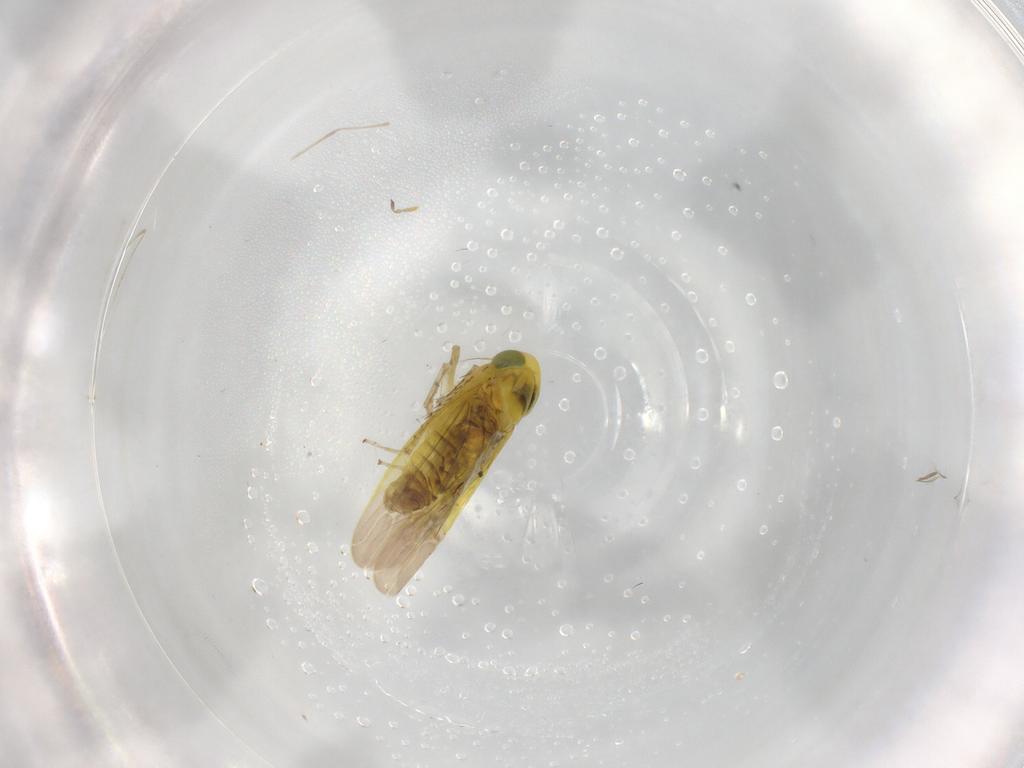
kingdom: Animalia
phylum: Arthropoda
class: Insecta
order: Hemiptera
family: Cicadellidae
